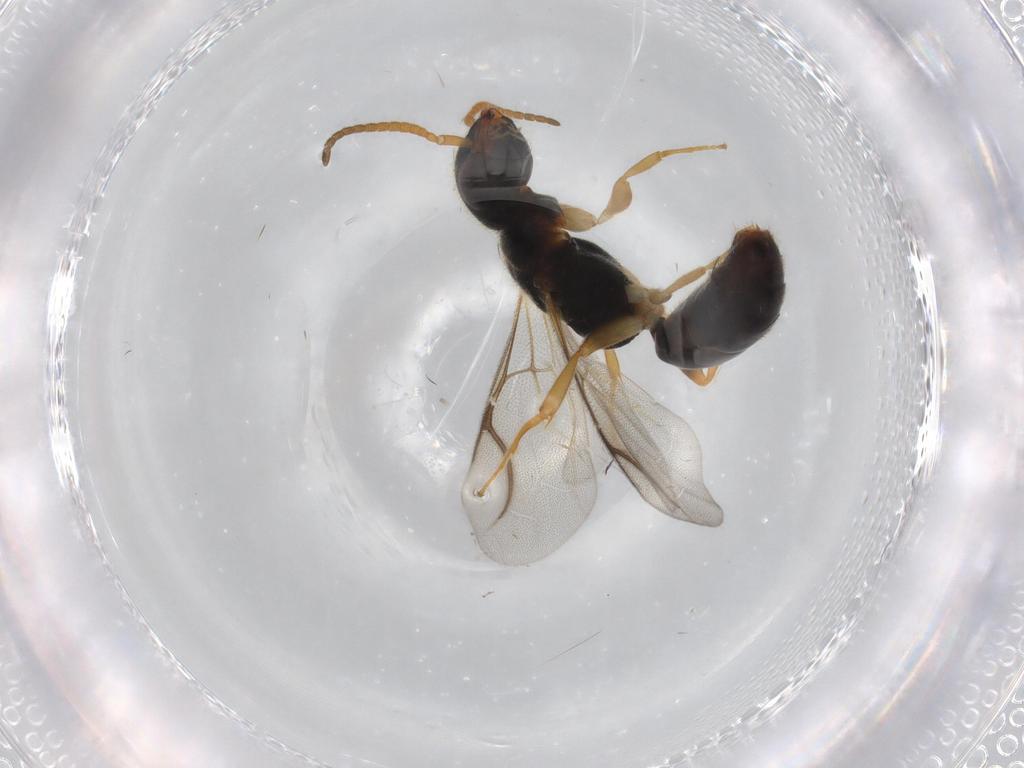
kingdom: Animalia
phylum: Arthropoda
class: Insecta
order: Hymenoptera
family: Bethylidae
